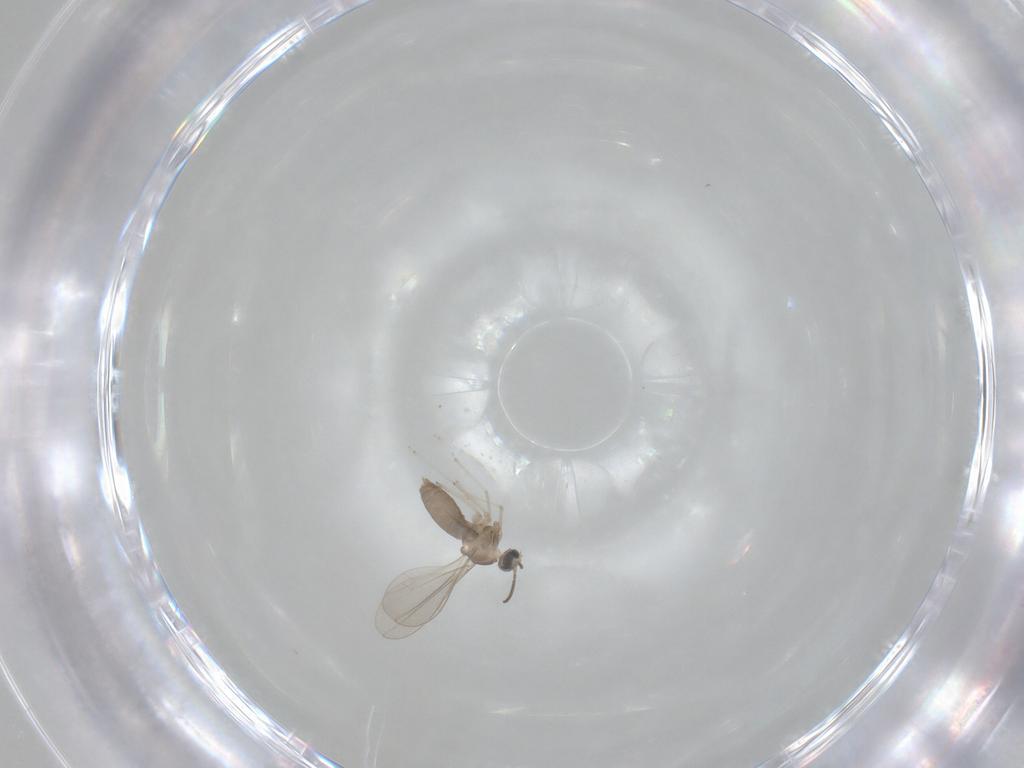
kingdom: Animalia
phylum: Arthropoda
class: Insecta
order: Diptera
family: Cecidomyiidae
